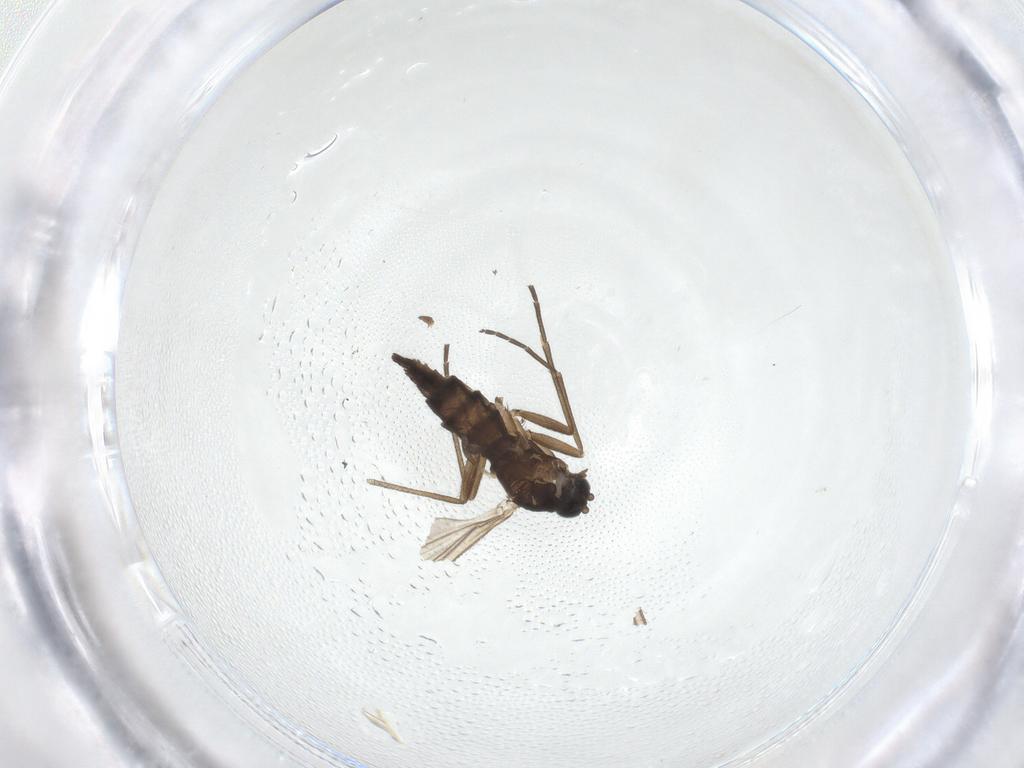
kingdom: Animalia
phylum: Arthropoda
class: Insecta
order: Diptera
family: Sciaridae
